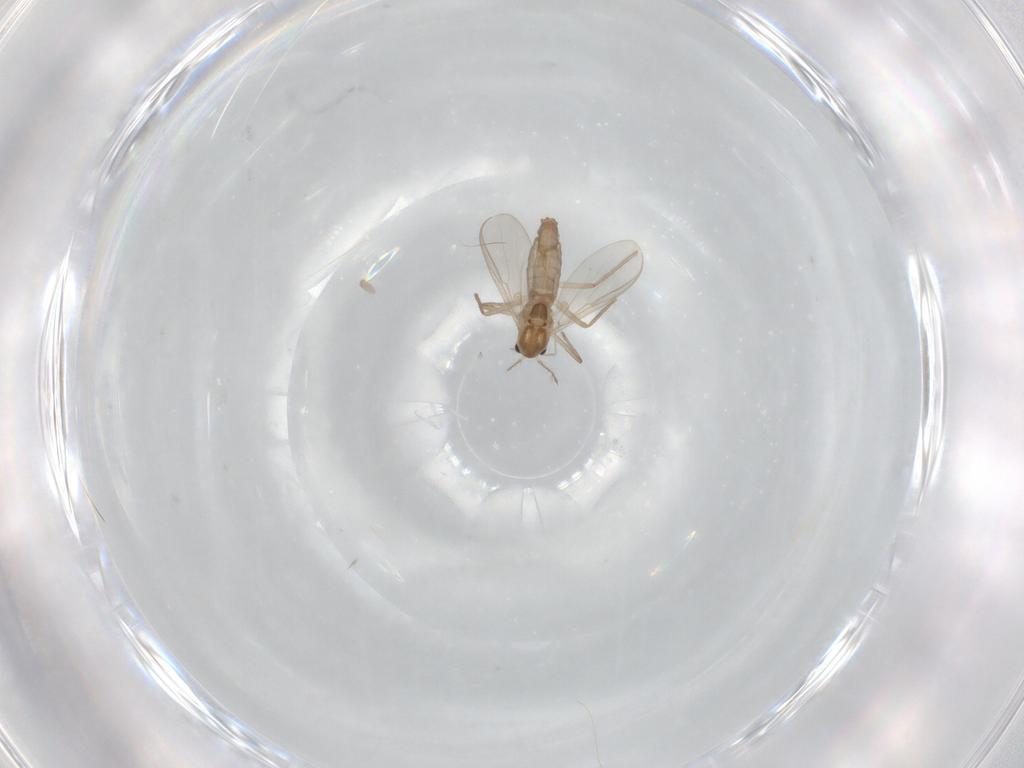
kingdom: Animalia
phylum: Arthropoda
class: Insecta
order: Diptera
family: Chironomidae
